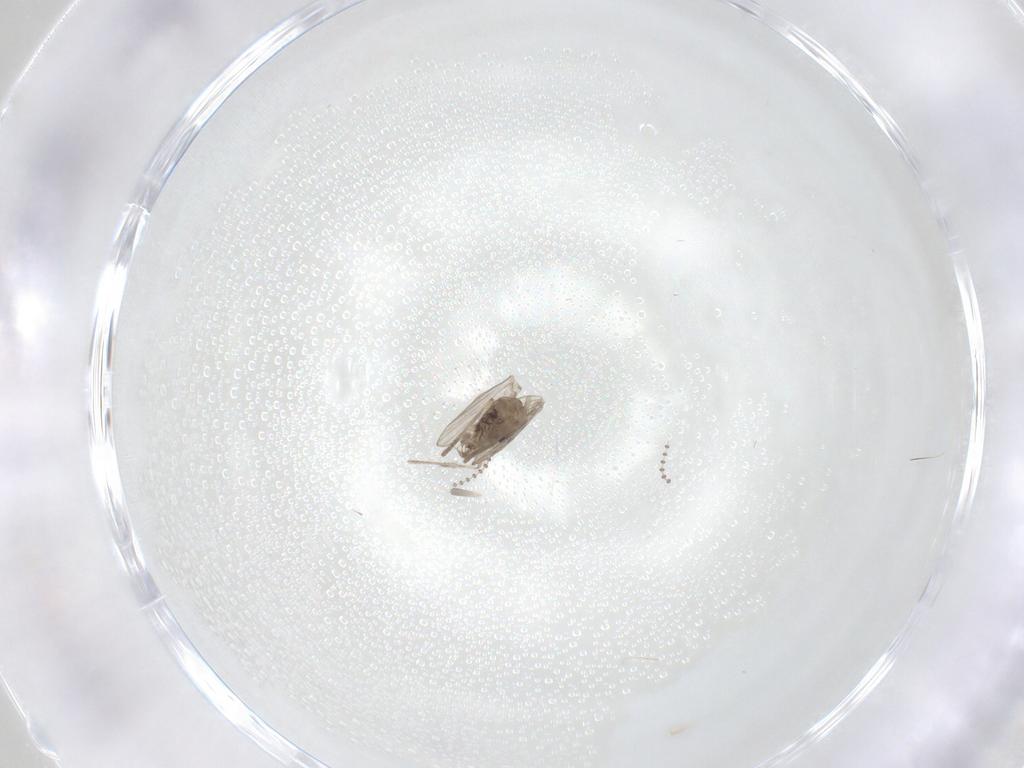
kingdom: Animalia
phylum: Arthropoda
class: Insecta
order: Diptera
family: Psychodidae
